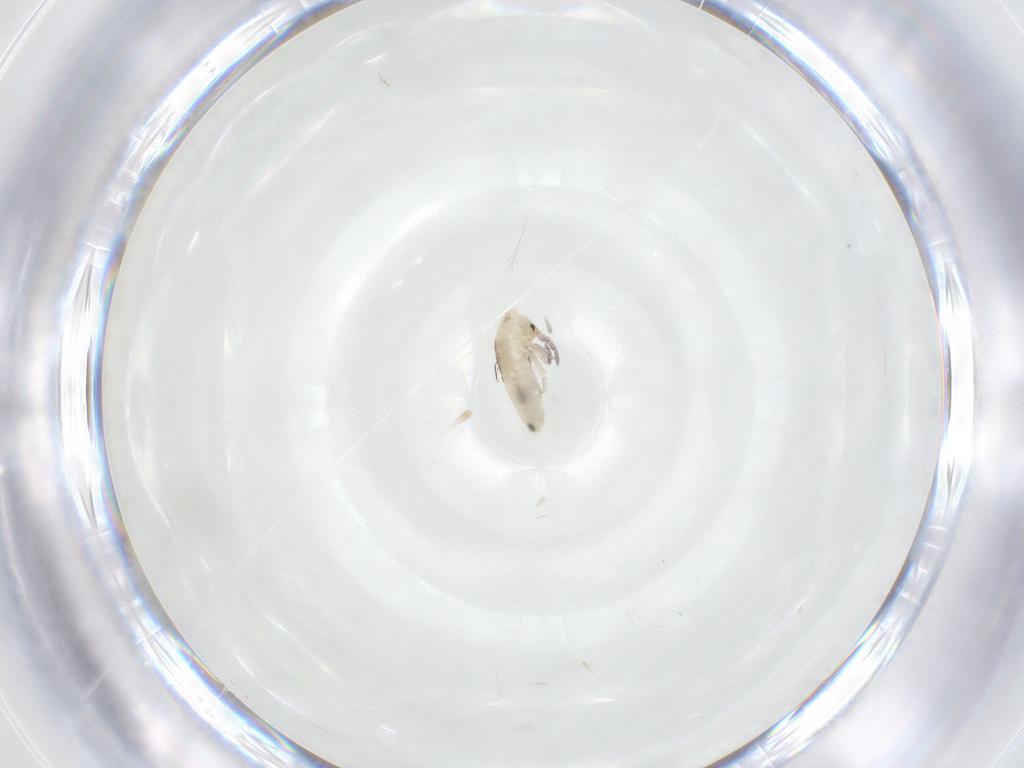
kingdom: Animalia
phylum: Arthropoda
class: Collembola
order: Entomobryomorpha
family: Entomobryidae
